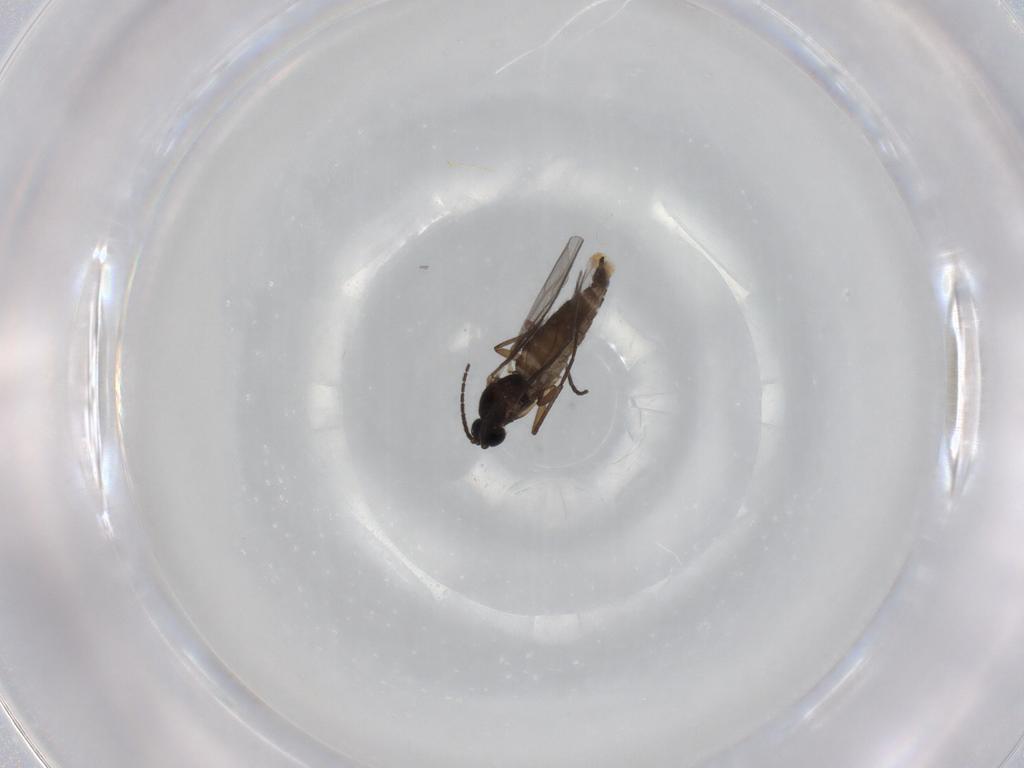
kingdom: Animalia
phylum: Arthropoda
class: Insecta
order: Diptera
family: Sciaridae
